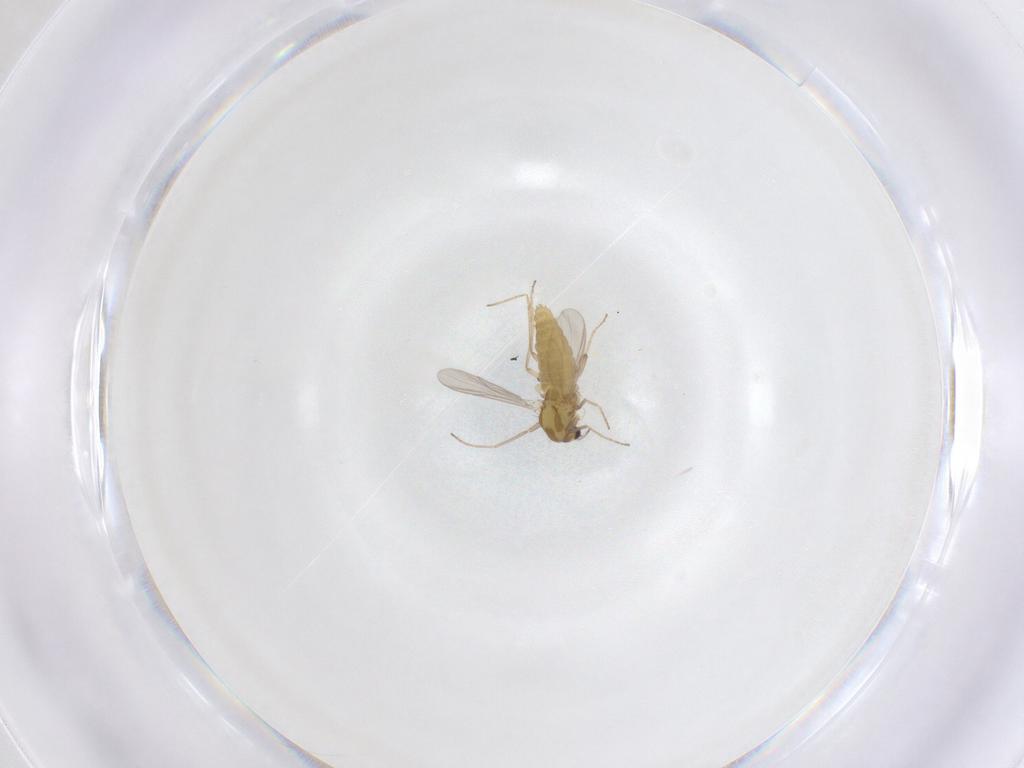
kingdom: Animalia
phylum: Arthropoda
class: Insecta
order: Diptera
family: Chironomidae
